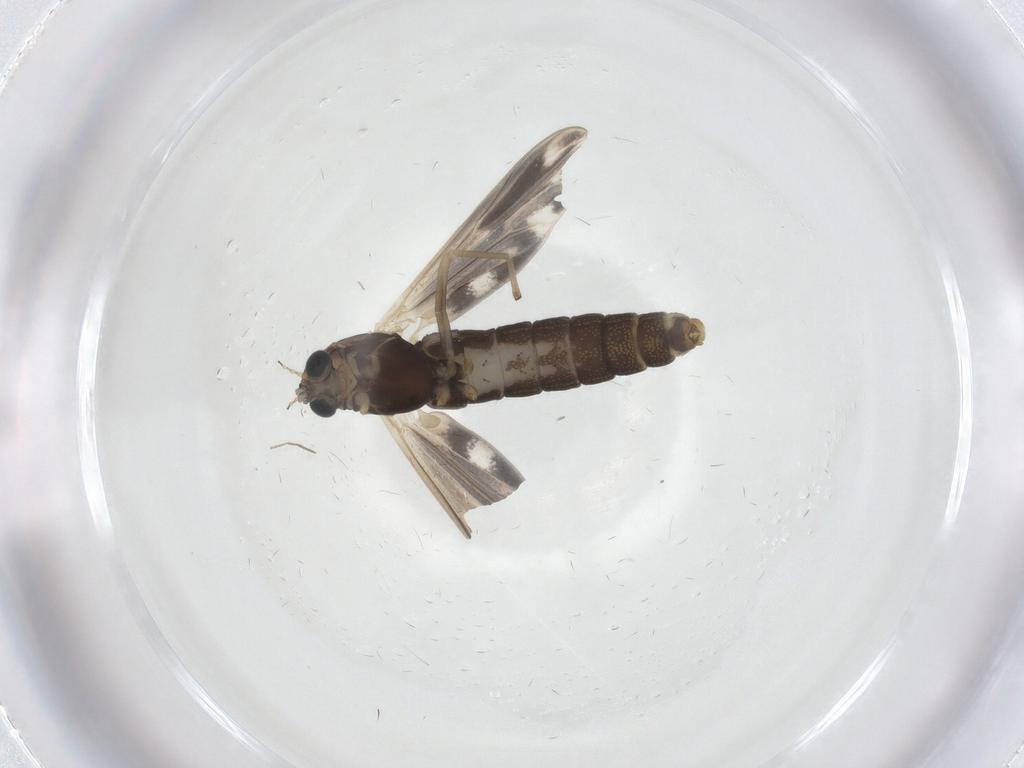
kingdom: Animalia
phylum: Arthropoda
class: Insecta
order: Diptera
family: Chironomidae
